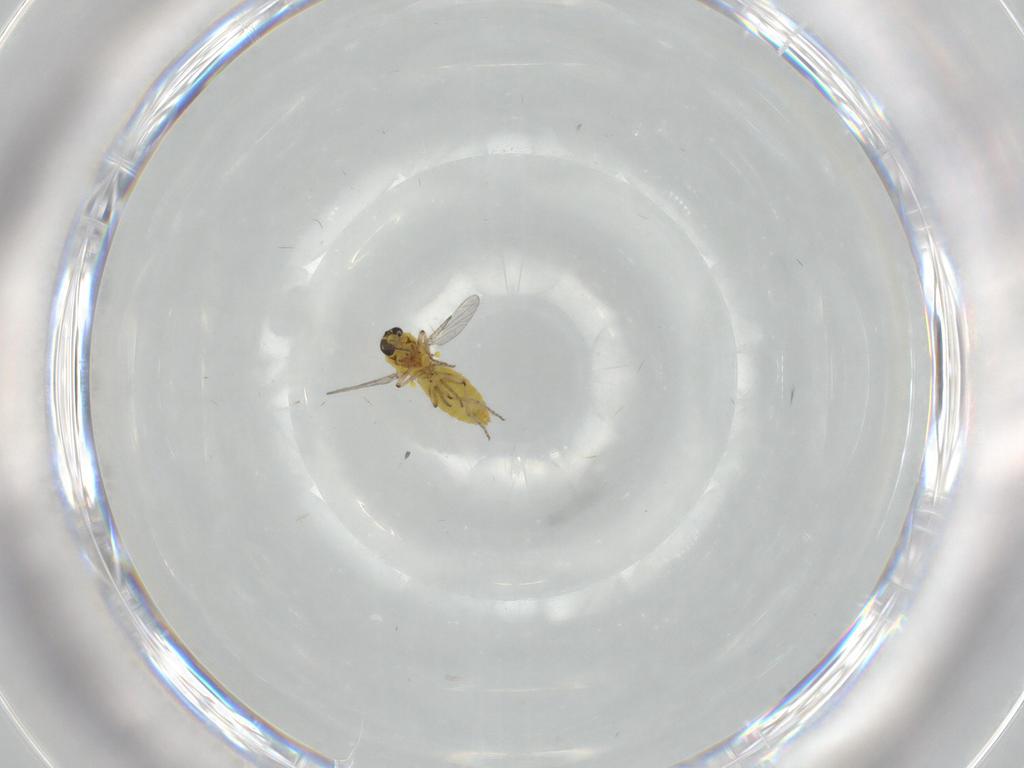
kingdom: Animalia
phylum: Arthropoda
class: Insecta
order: Diptera
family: Ceratopogonidae
